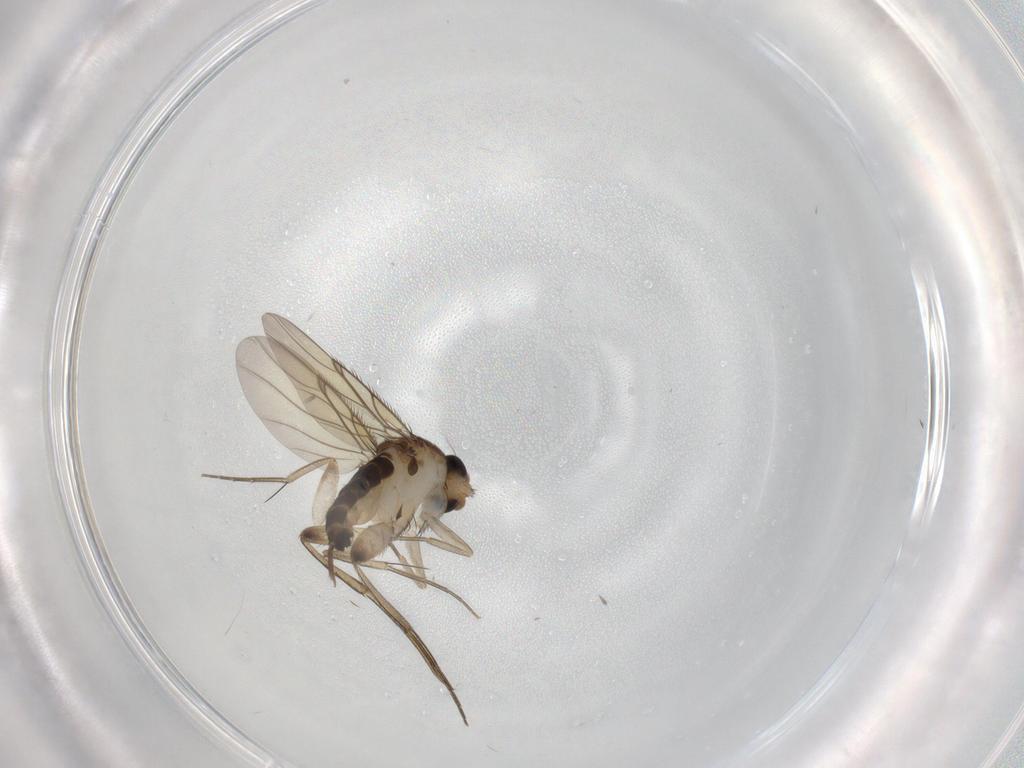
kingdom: Animalia
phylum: Arthropoda
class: Insecta
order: Diptera
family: Phoridae
